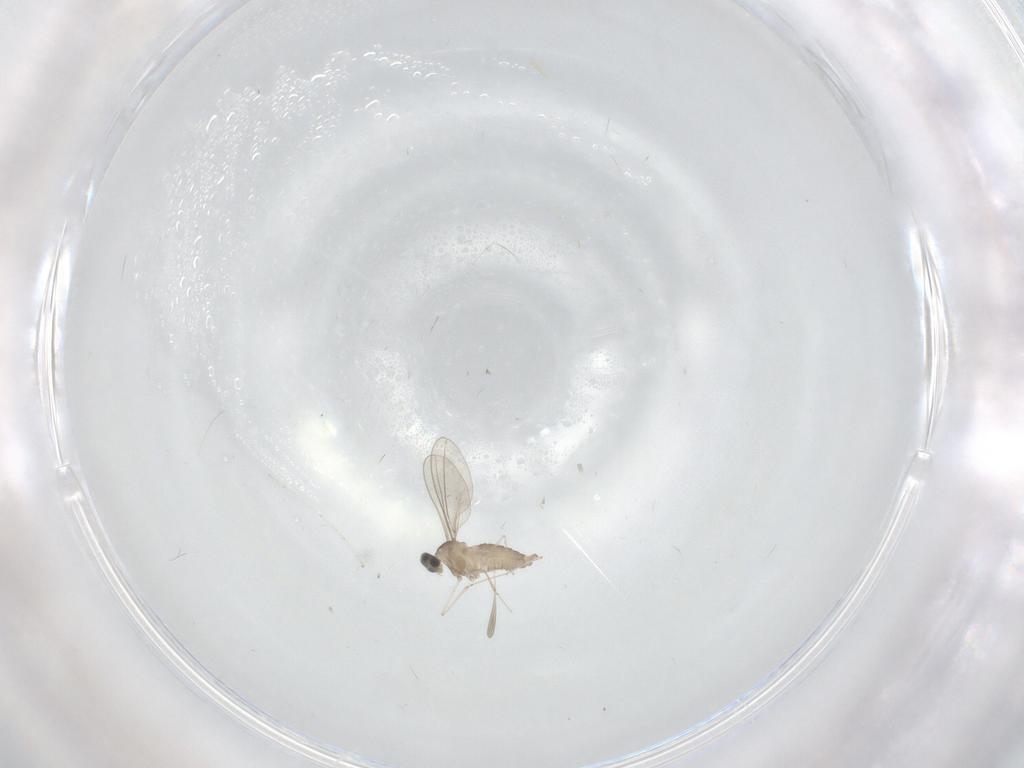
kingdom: Animalia
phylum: Arthropoda
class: Insecta
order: Diptera
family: Cecidomyiidae
